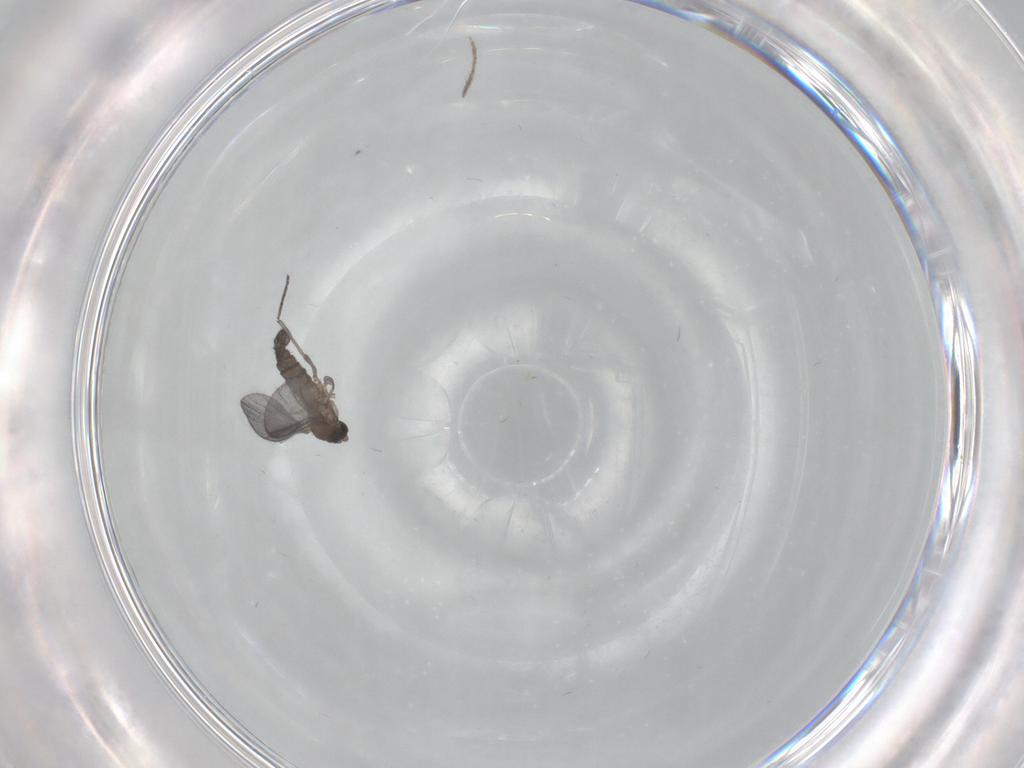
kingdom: Animalia
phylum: Arthropoda
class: Insecta
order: Diptera
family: Sciaridae
